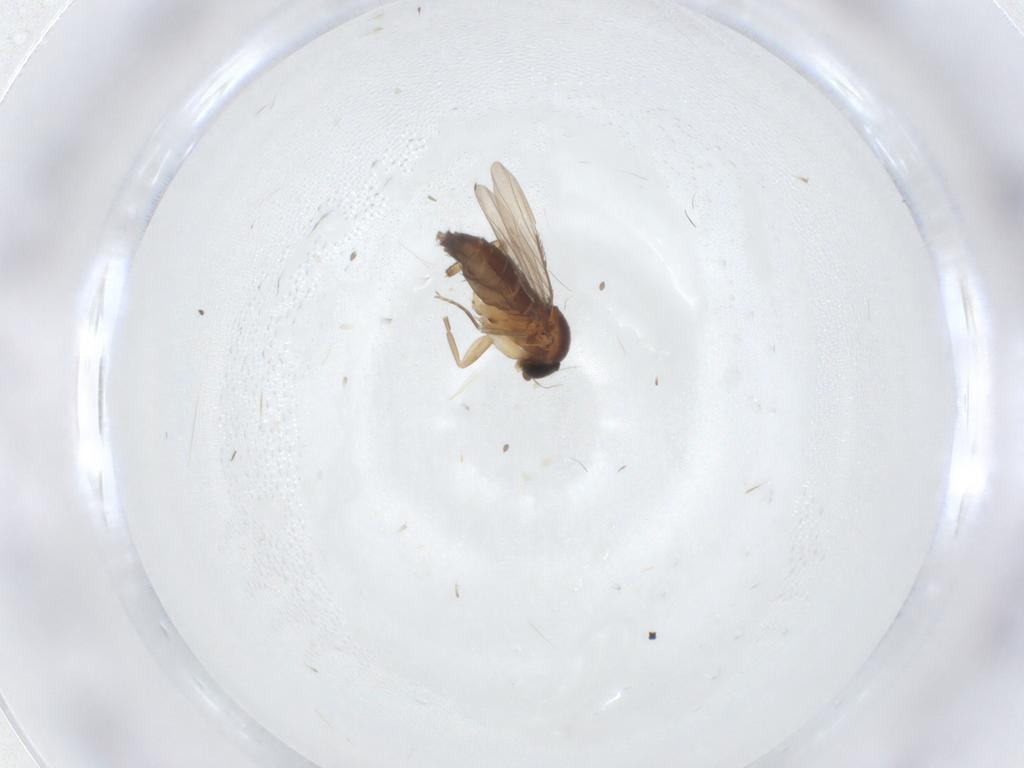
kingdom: Animalia
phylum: Arthropoda
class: Insecta
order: Diptera
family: Phoridae
